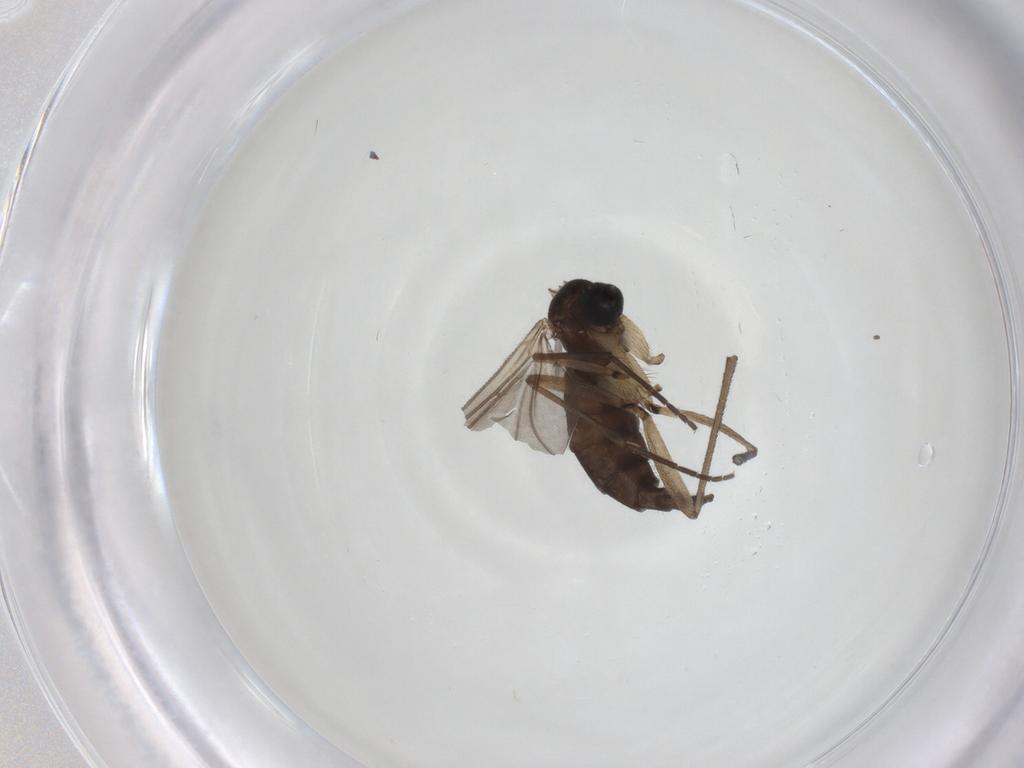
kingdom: Animalia
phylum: Arthropoda
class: Insecta
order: Diptera
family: Sciaridae
